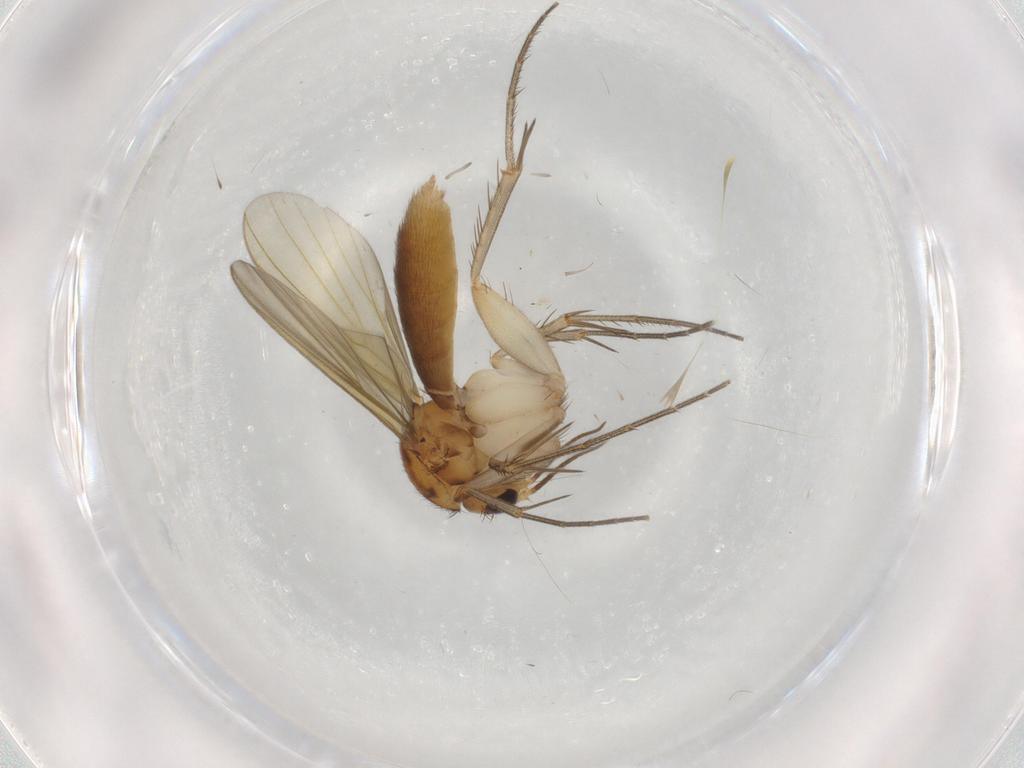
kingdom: Animalia
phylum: Arthropoda
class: Insecta
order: Diptera
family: Mycetophilidae
